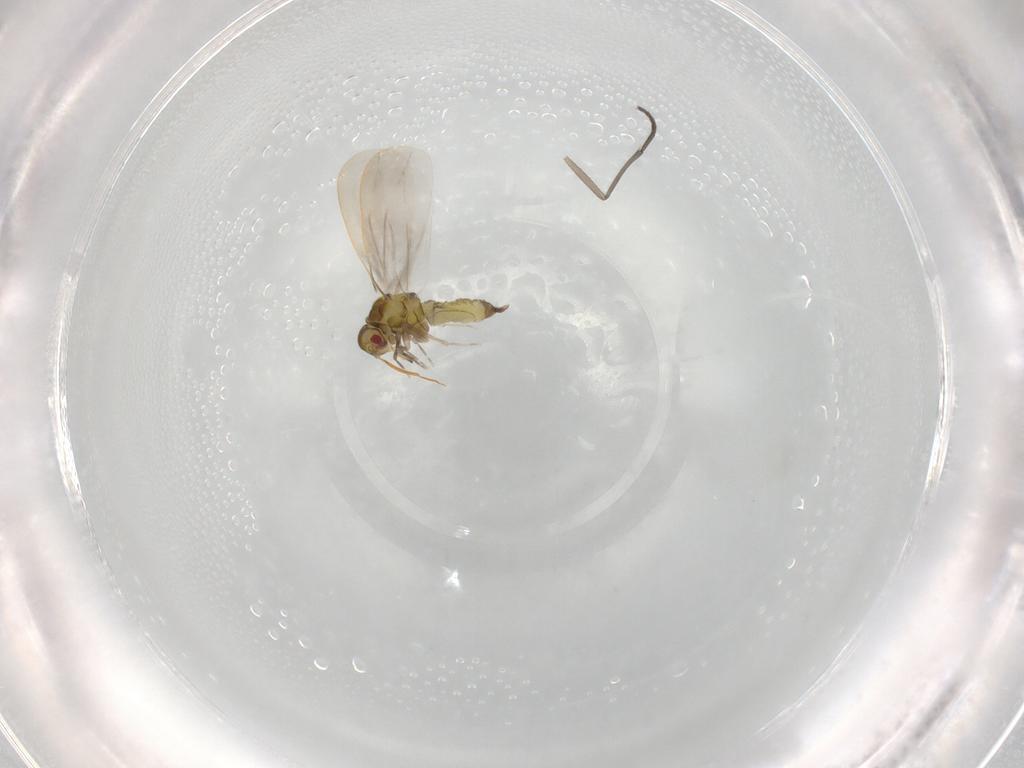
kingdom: Animalia
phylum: Arthropoda
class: Insecta
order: Hemiptera
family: Aleyrodidae
